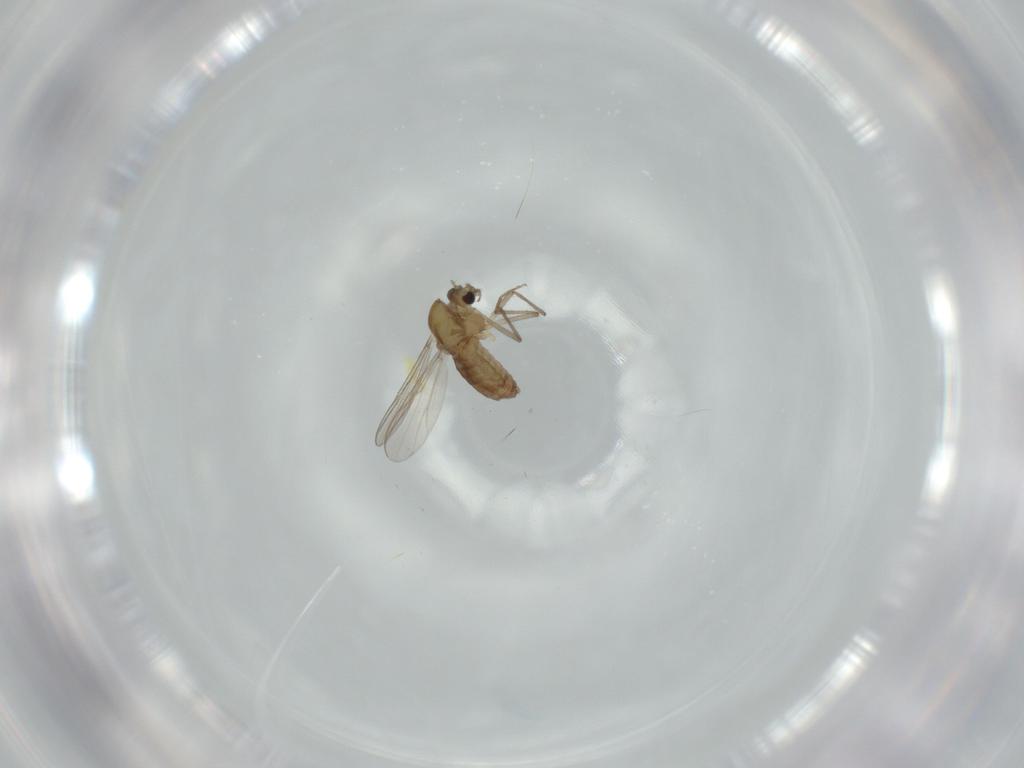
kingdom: Animalia
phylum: Arthropoda
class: Insecta
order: Diptera
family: Chironomidae
